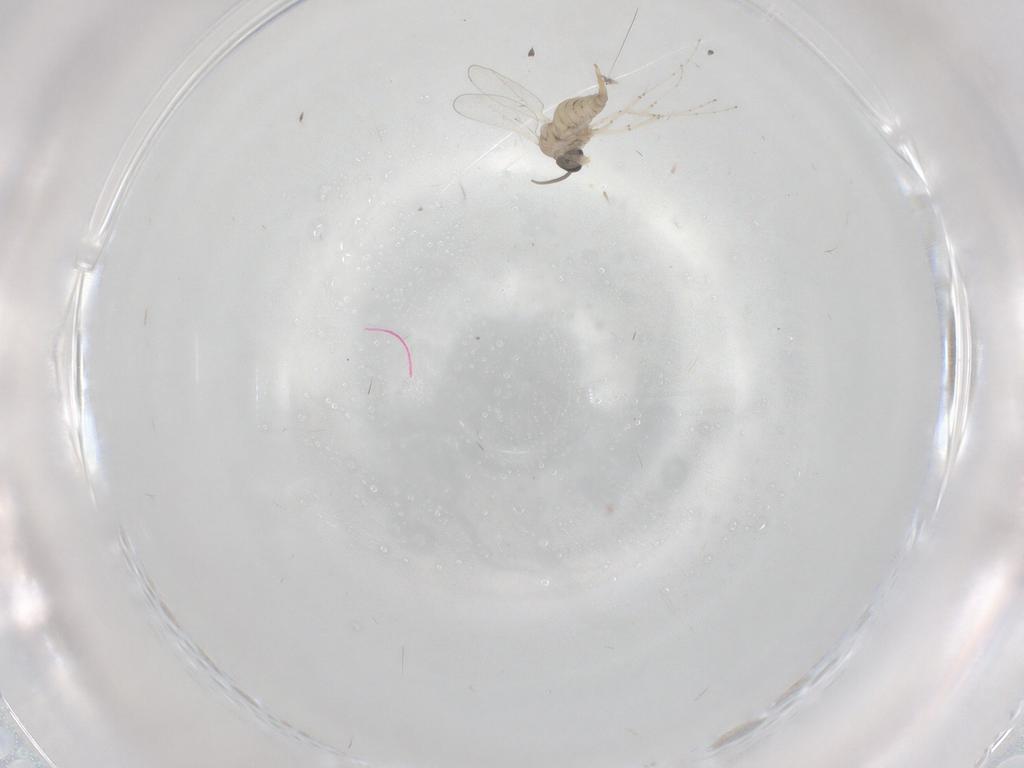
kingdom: Animalia
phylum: Arthropoda
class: Insecta
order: Diptera
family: Cecidomyiidae
